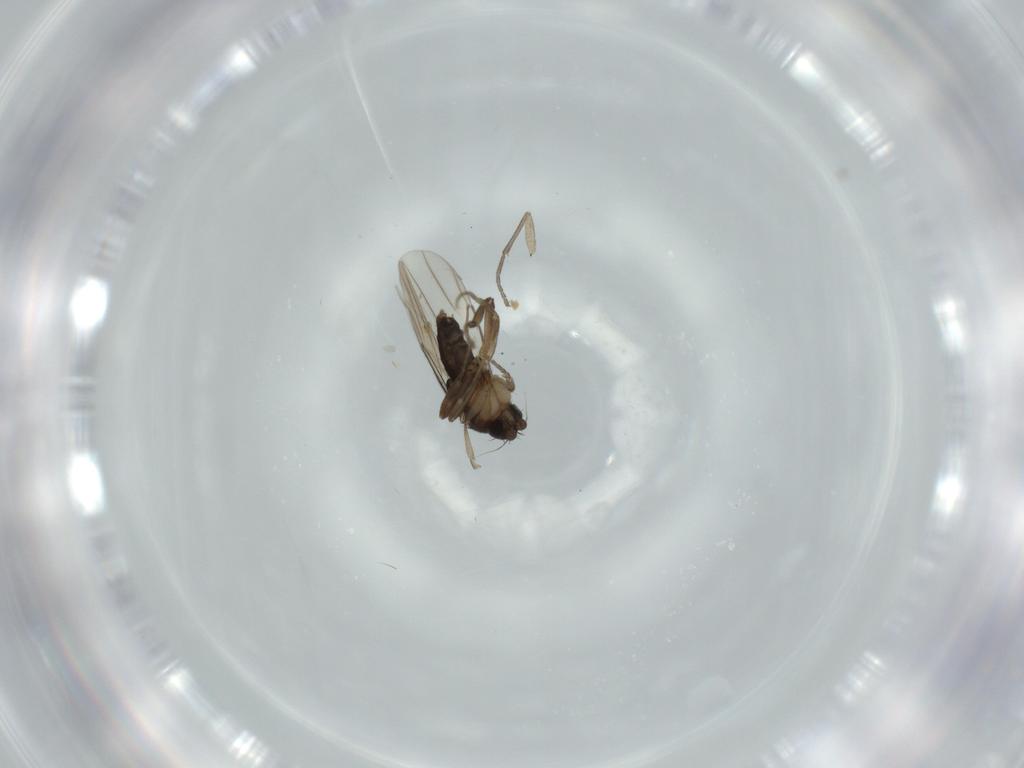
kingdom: Animalia
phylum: Arthropoda
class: Insecta
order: Diptera
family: Phoridae
